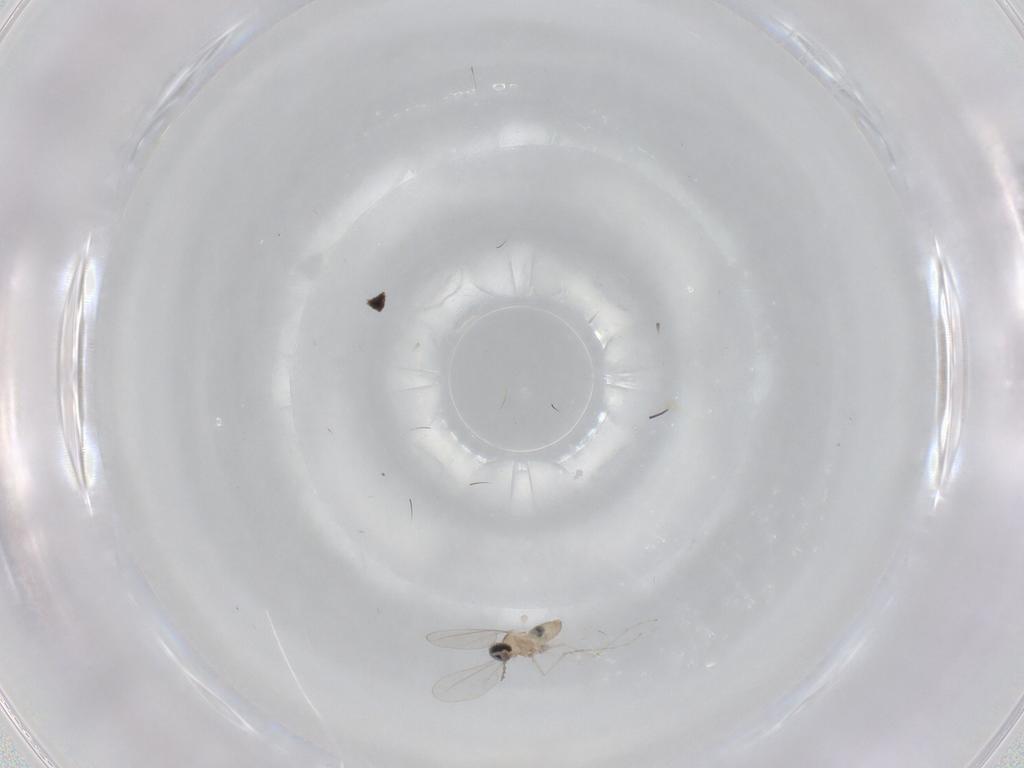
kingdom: Animalia
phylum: Arthropoda
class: Insecta
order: Diptera
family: Cecidomyiidae
